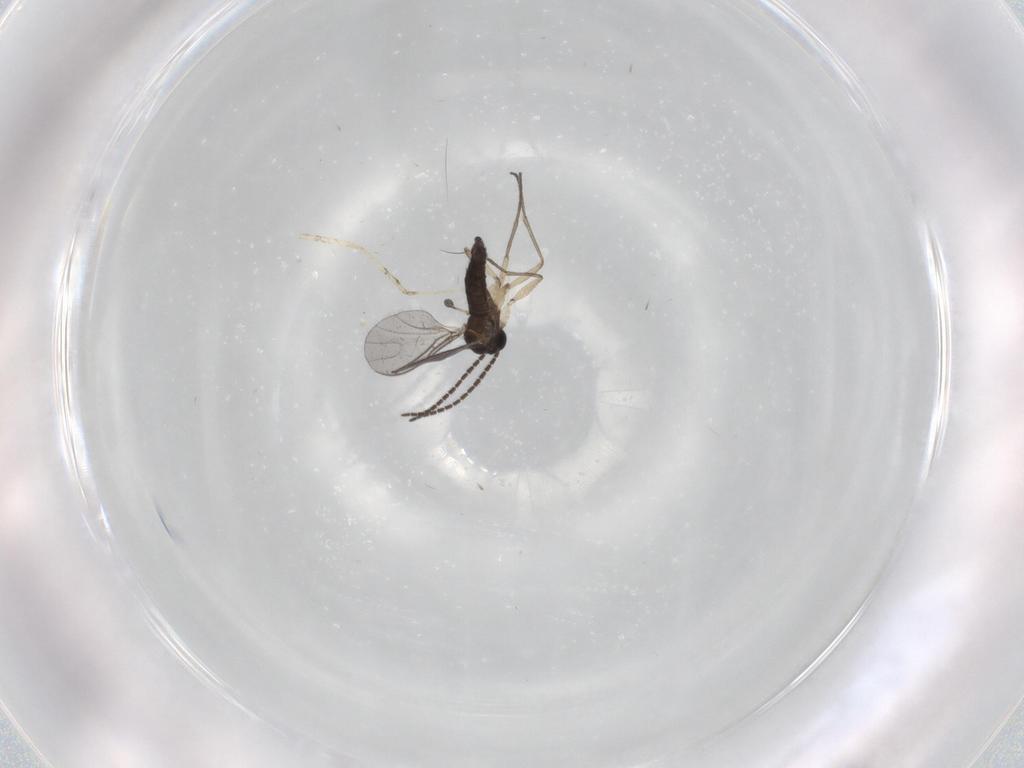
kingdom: Animalia
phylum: Arthropoda
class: Insecta
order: Diptera
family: Sciaridae
